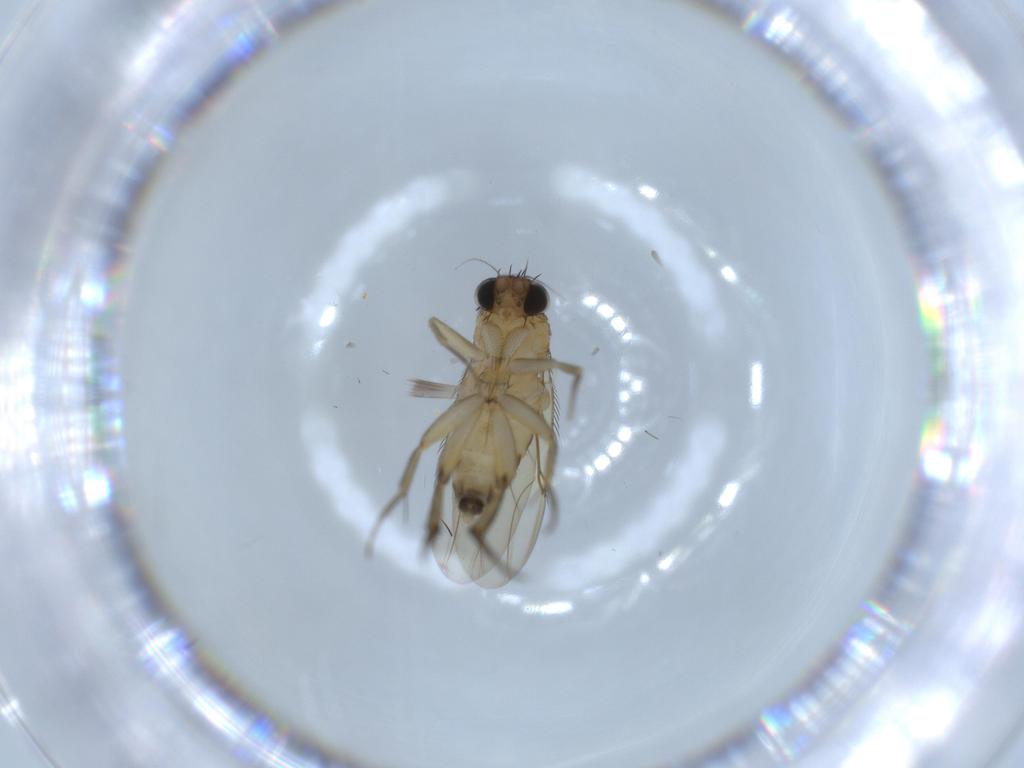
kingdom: Animalia
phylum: Arthropoda
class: Insecta
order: Diptera
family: Phoridae
